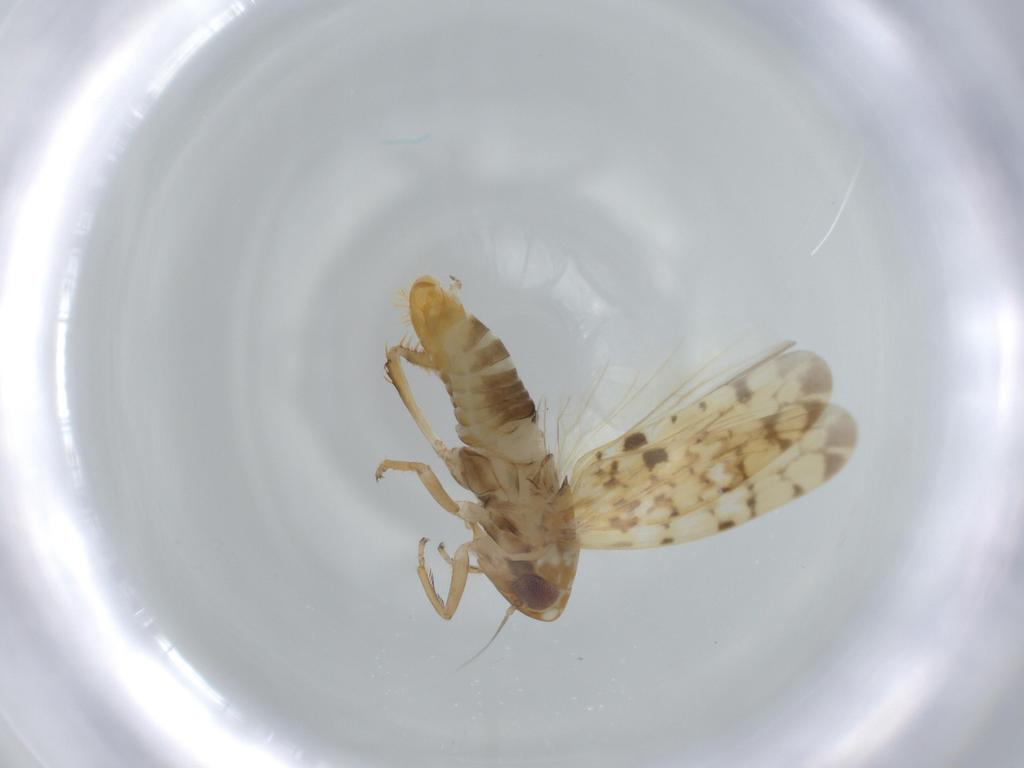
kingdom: Animalia
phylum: Arthropoda
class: Insecta
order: Hemiptera
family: Cicadellidae
